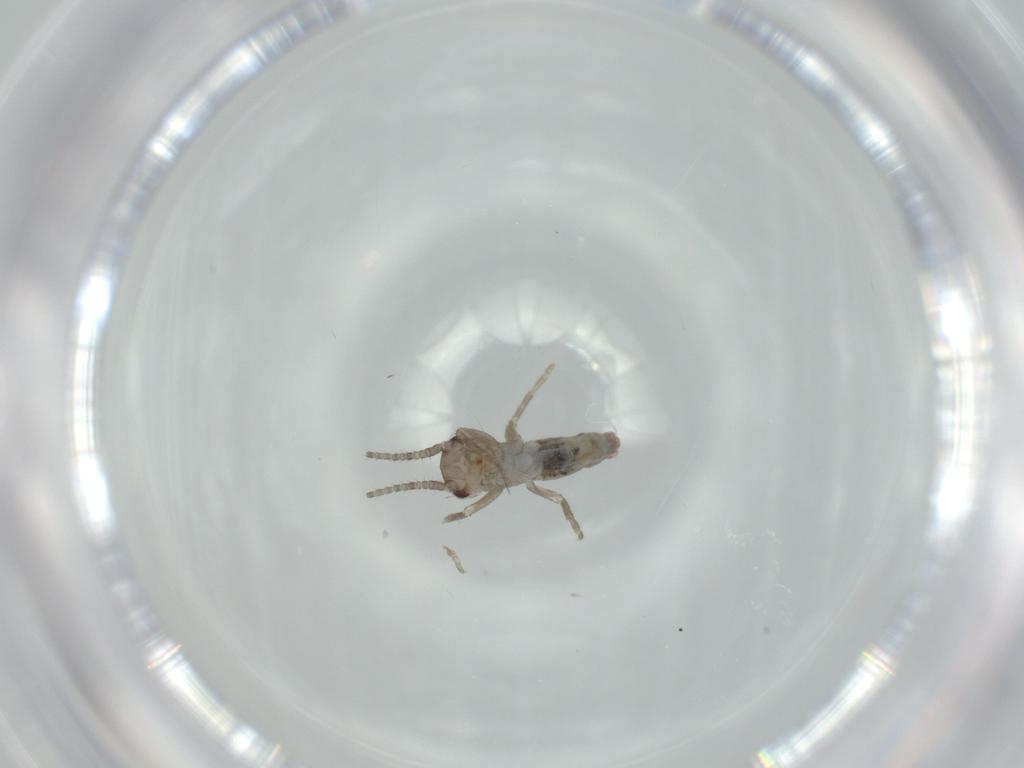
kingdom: Animalia
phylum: Arthropoda
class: Insecta
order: Orthoptera
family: Gryllidae
